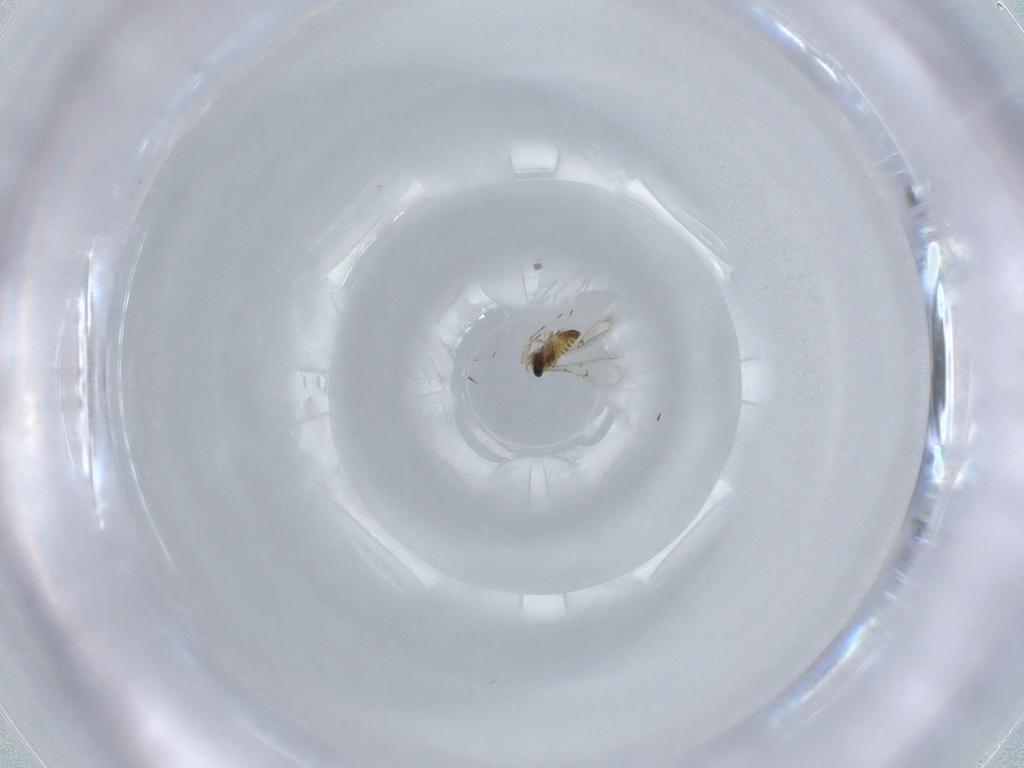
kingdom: Animalia
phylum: Arthropoda
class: Insecta
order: Hymenoptera
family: Trichogrammatidae
